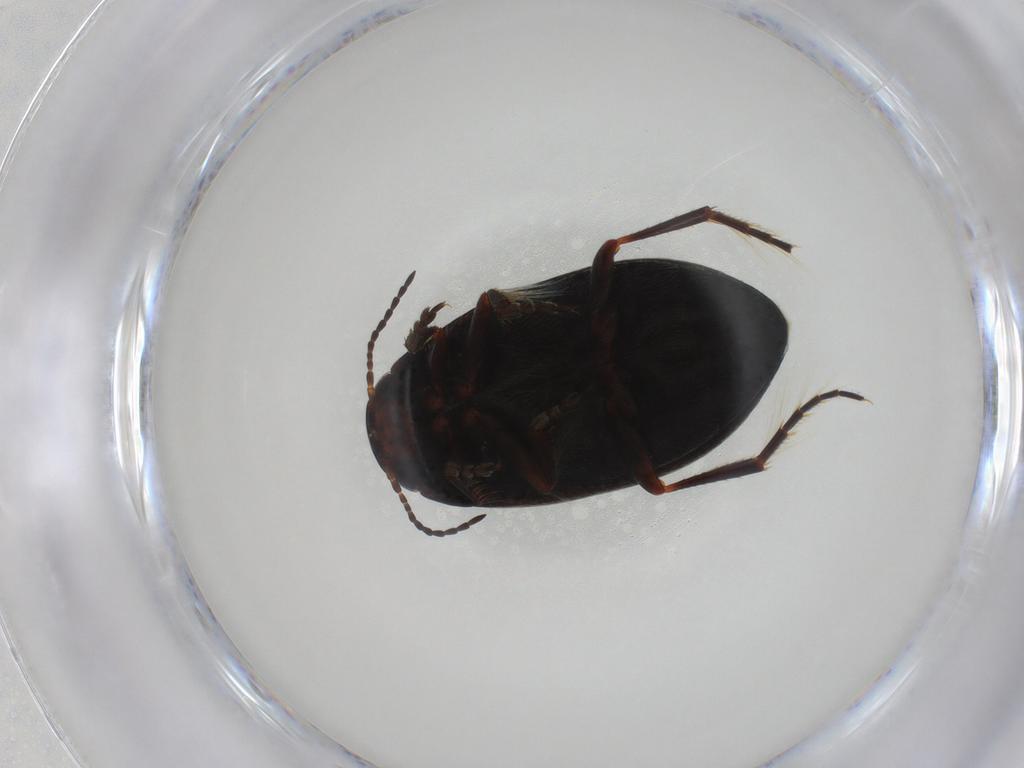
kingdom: Animalia
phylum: Arthropoda
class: Insecta
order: Coleoptera
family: Dytiscidae
